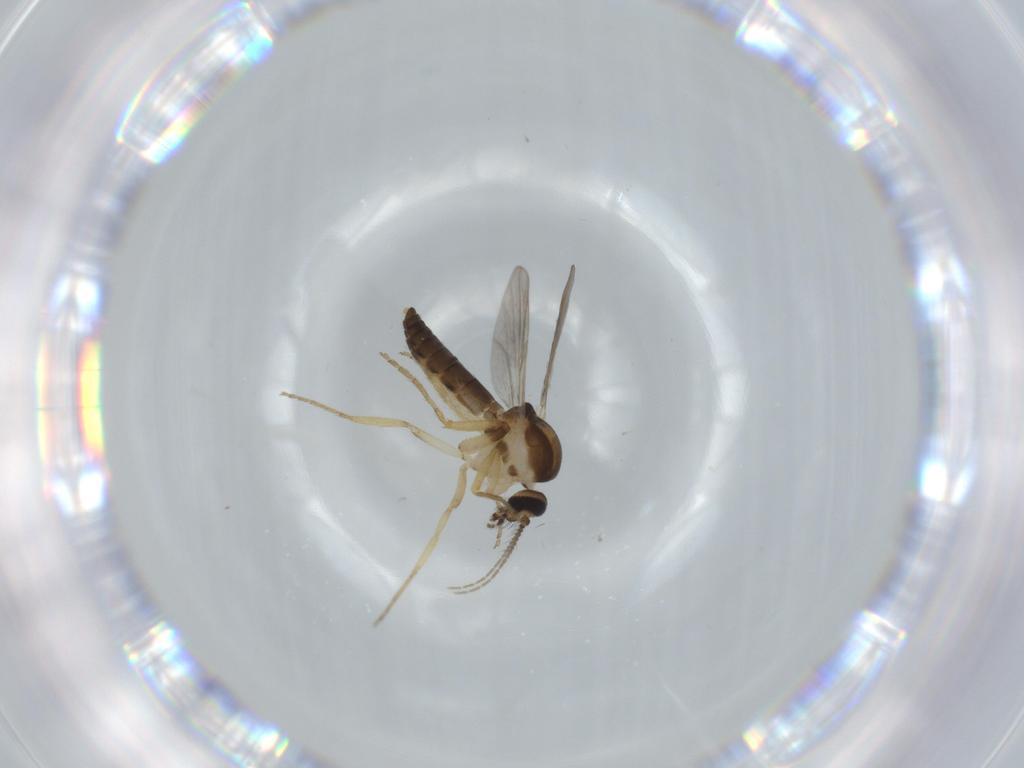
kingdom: Animalia
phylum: Arthropoda
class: Insecta
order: Diptera
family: Ceratopogonidae
